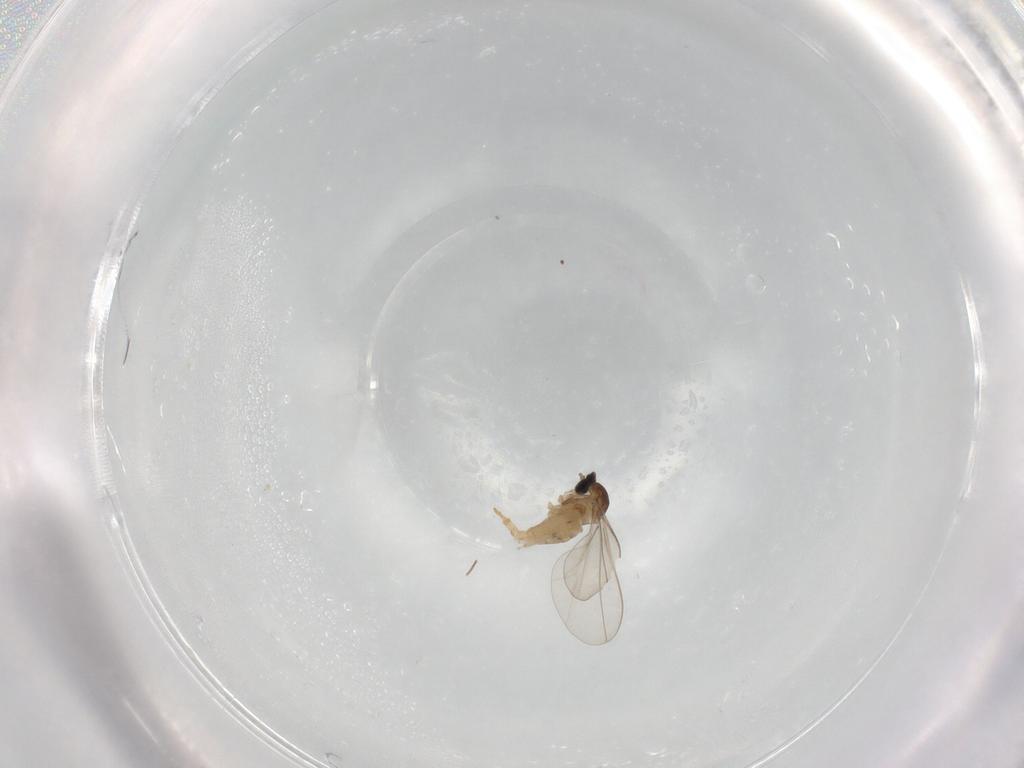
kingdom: Animalia
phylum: Arthropoda
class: Insecta
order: Diptera
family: Cecidomyiidae
